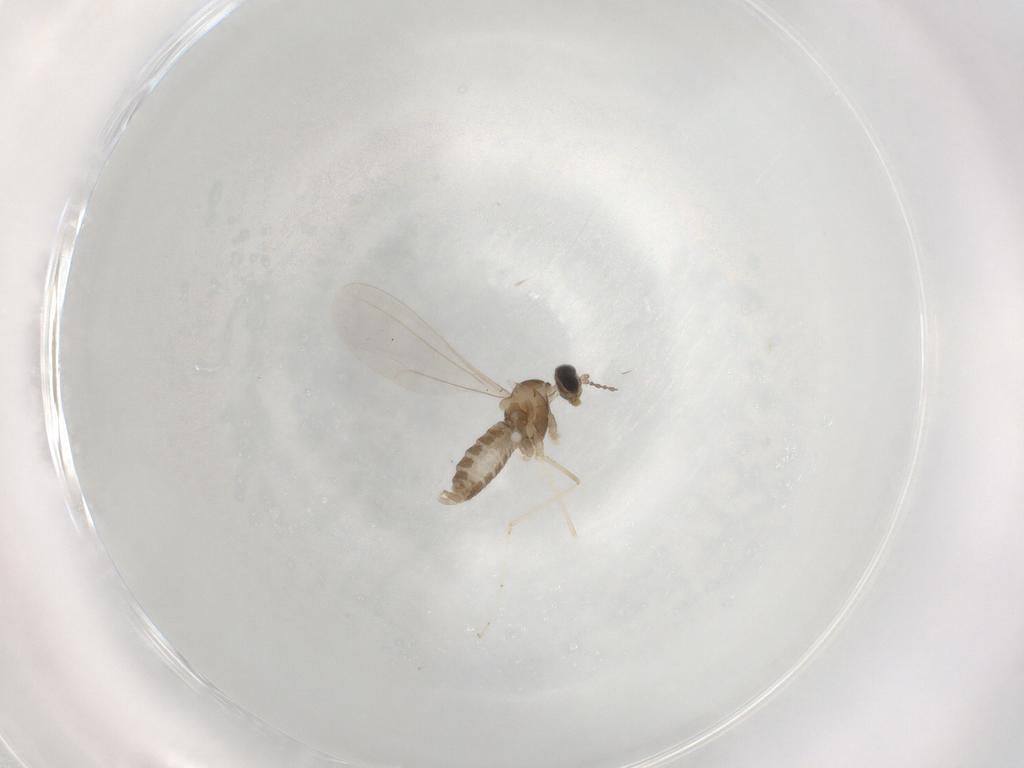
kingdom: Animalia
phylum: Arthropoda
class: Insecta
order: Diptera
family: Cecidomyiidae
